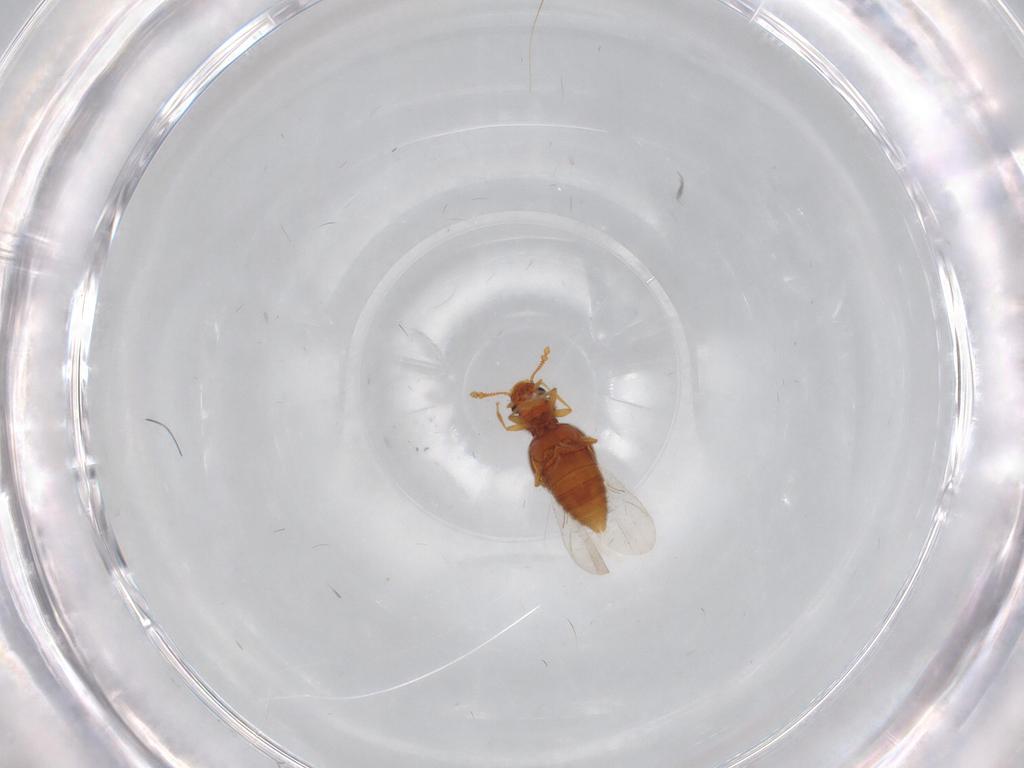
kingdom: Animalia
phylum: Arthropoda
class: Insecta
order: Coleoptera
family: Staphylinidae
